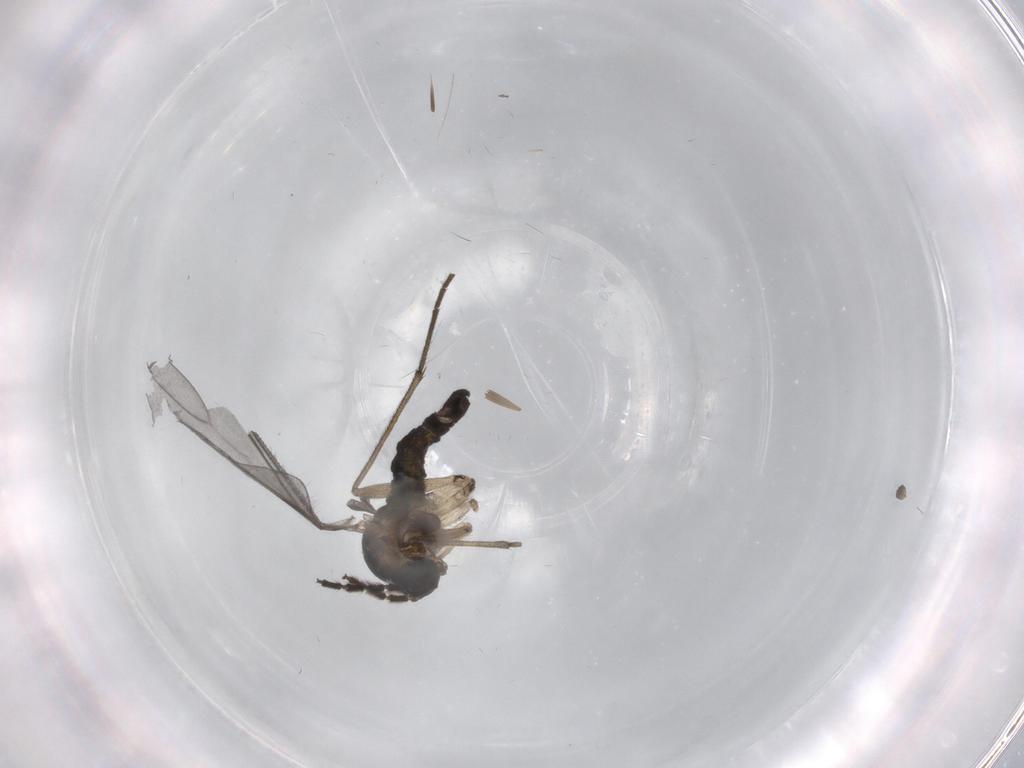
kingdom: Animalia
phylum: Arthropoda
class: Insecta
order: Diptera
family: Sciaridae
